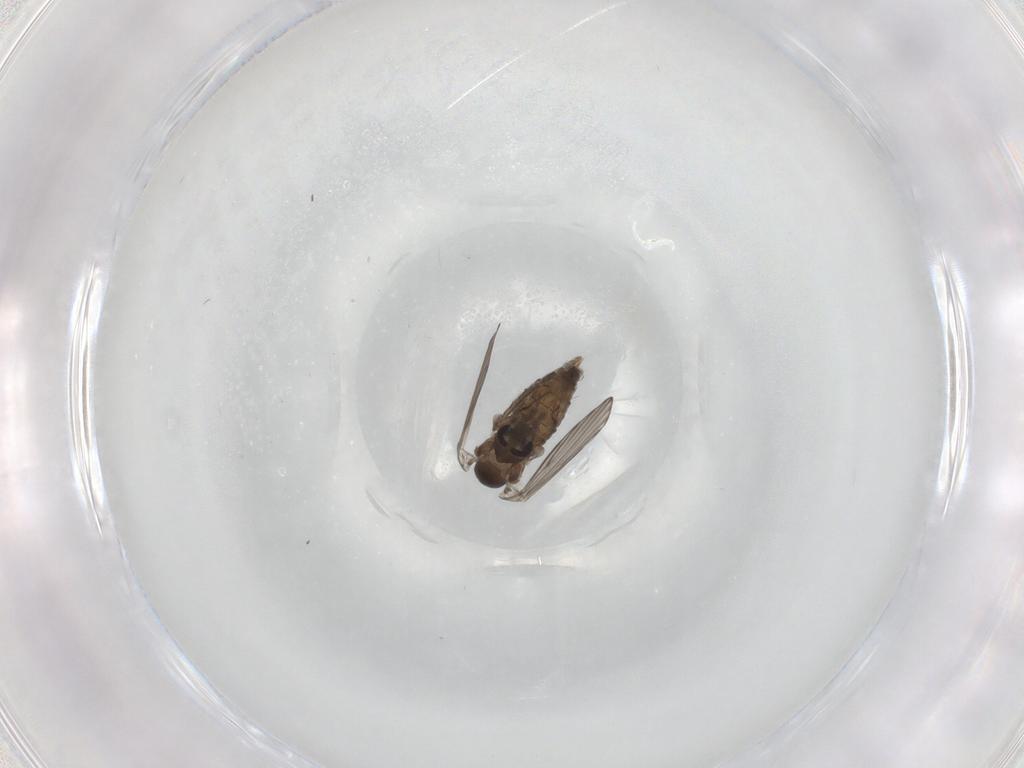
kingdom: Animalia
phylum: Arthropoda
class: Insecta
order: Diptera
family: Psychodidae
